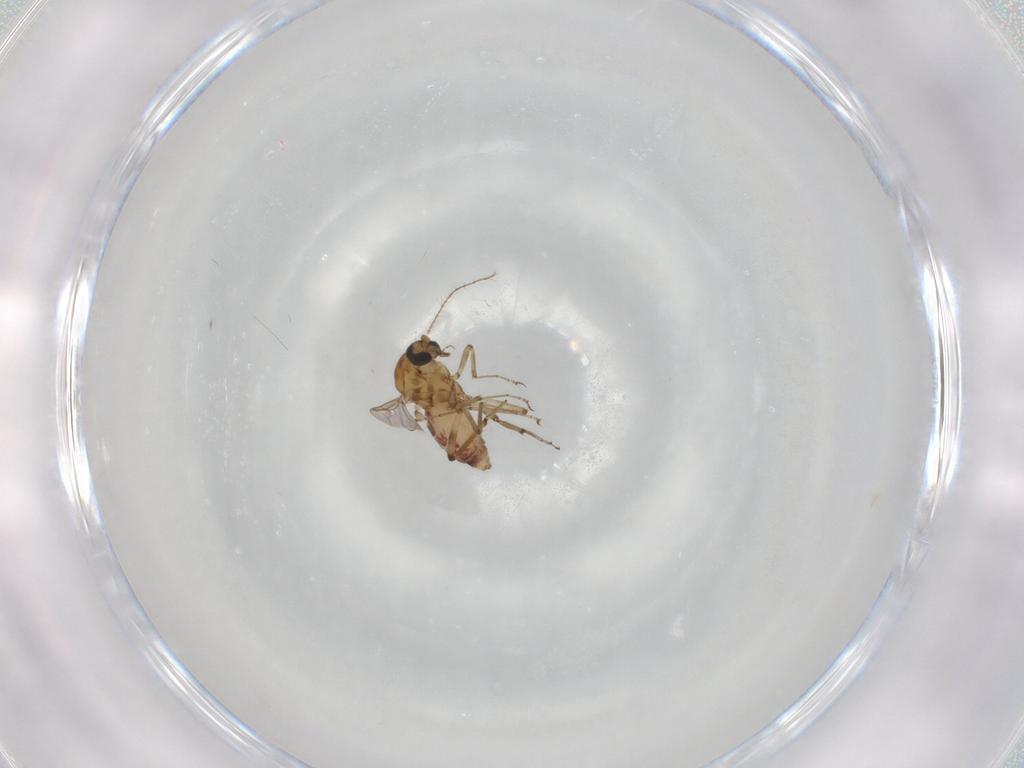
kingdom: Animalia
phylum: Arthropoda
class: Insecta
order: Diptera
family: Ceratopogonidae
